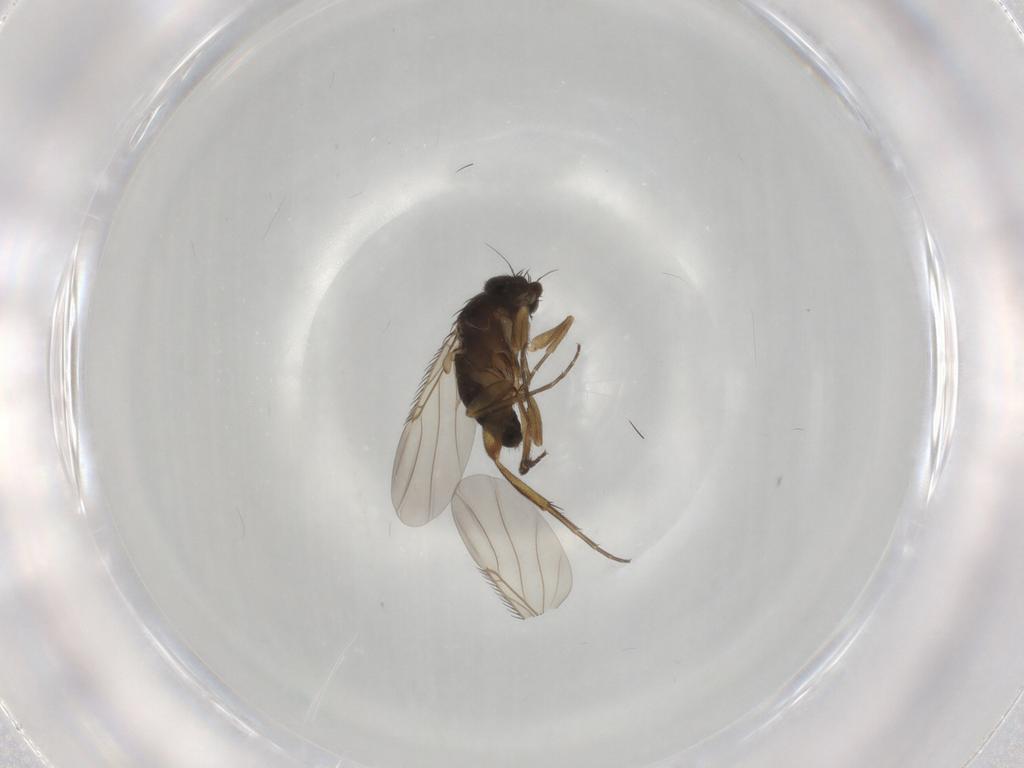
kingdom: Animalia
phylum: Arthropoda
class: Insecta
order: Diptera
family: Phoridae
